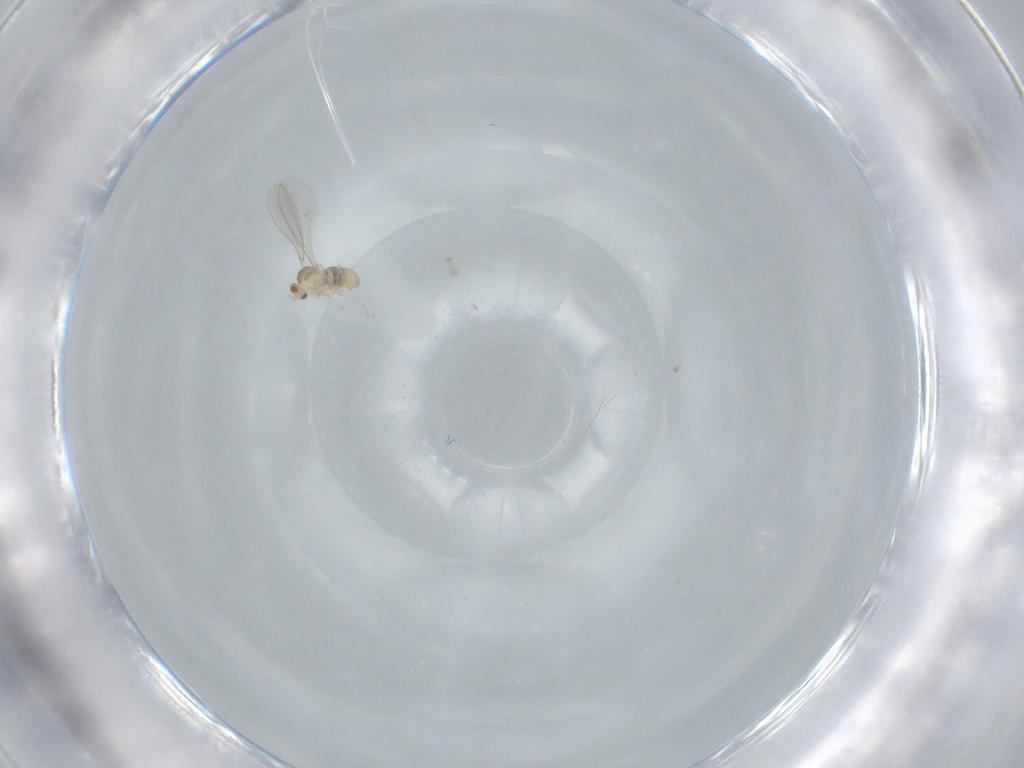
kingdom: Animalia
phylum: Arthropoda
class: Insecta
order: Diptera
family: Cecidomyiidae
